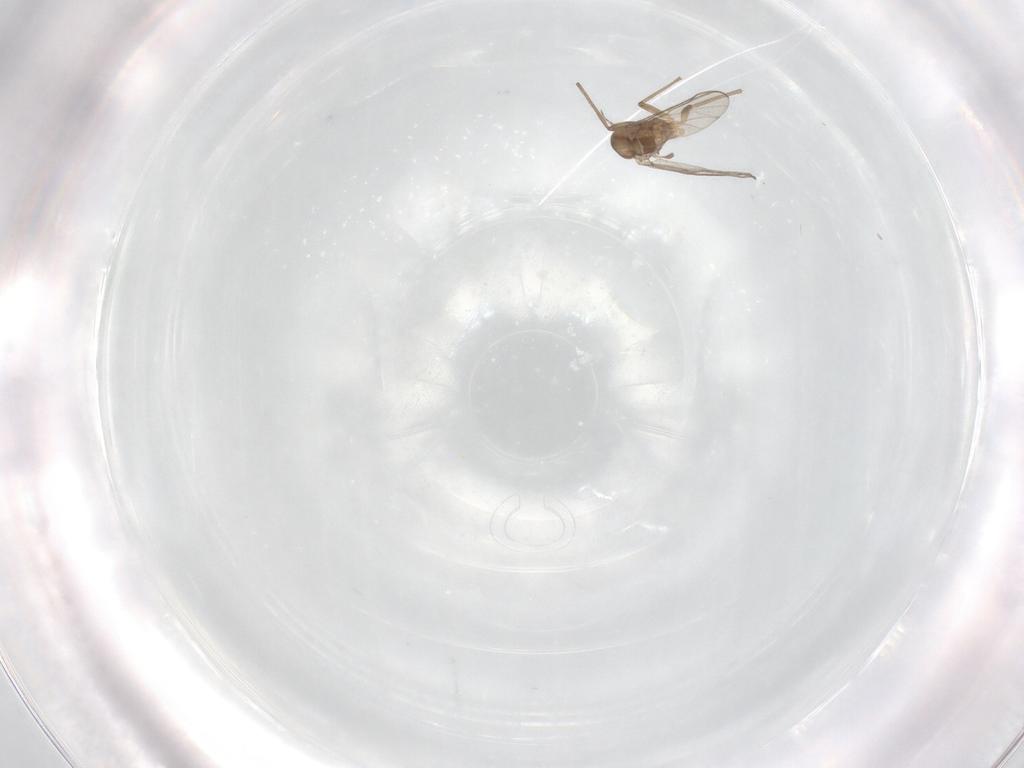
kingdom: Animalia
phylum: Arthropoda
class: Insecta
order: Diptera
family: Chironomidae
